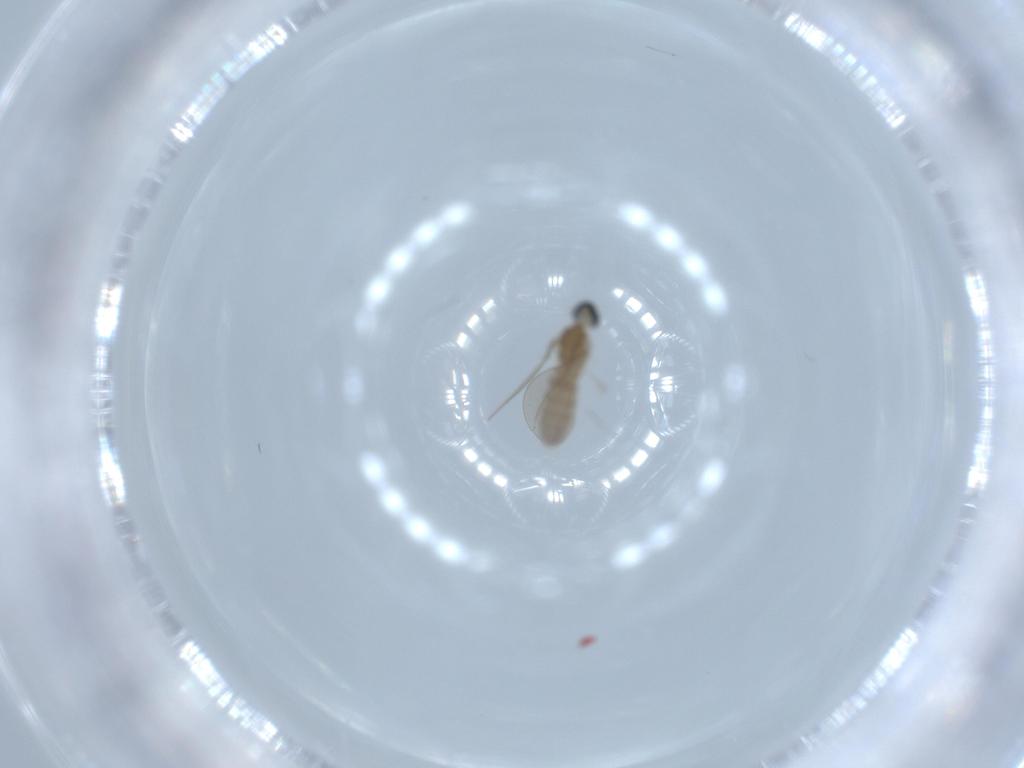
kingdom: Animalia
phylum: Arthropoda
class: Insecta
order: Diptera
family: Cecidomyiidae
